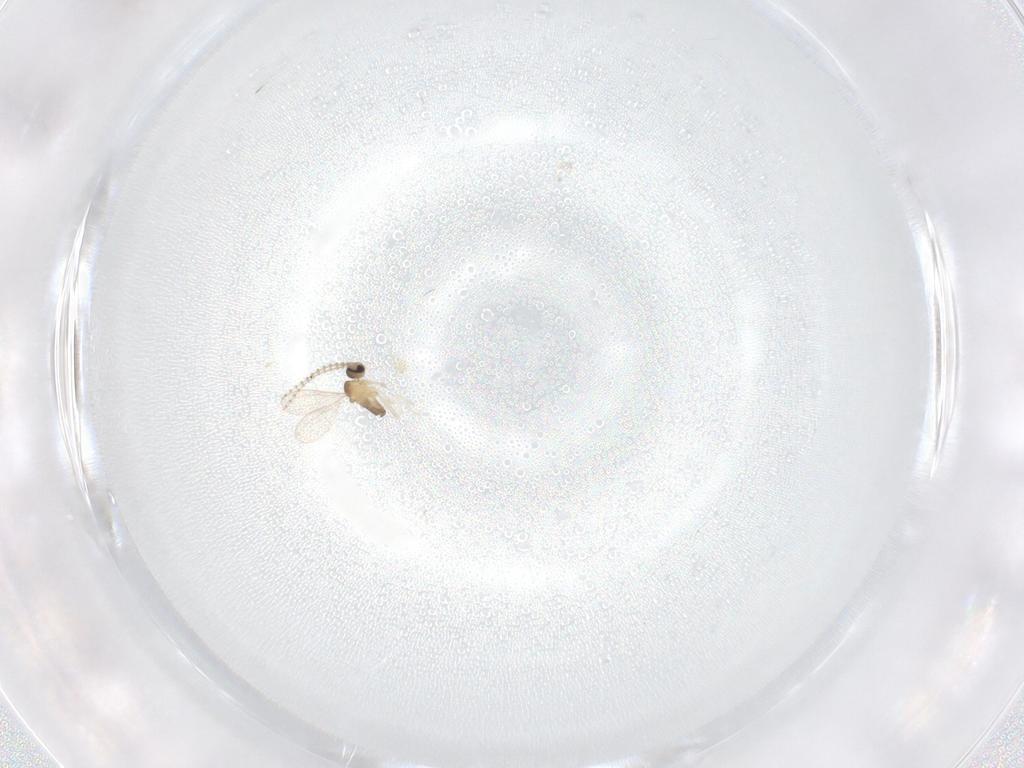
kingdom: Animalia
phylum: Arthropoda
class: Insecta
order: Diptera
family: Cecidomyiidae
